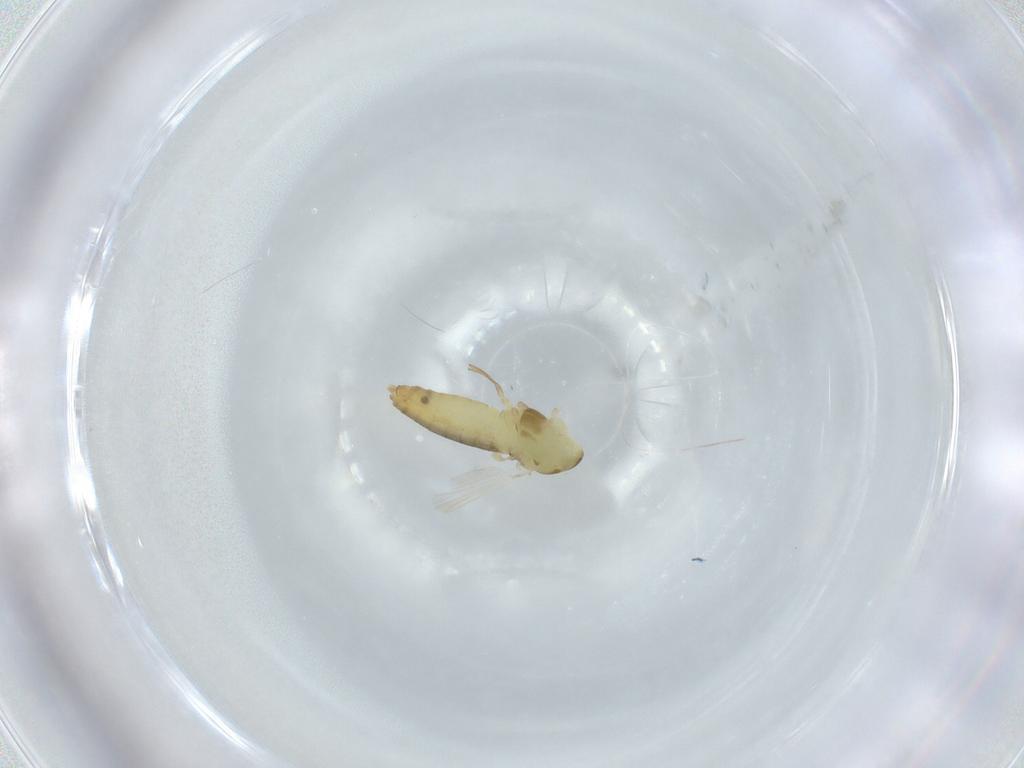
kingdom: Animalia
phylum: Arthropoda
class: Insecta
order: Diptera
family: Chironomidae
